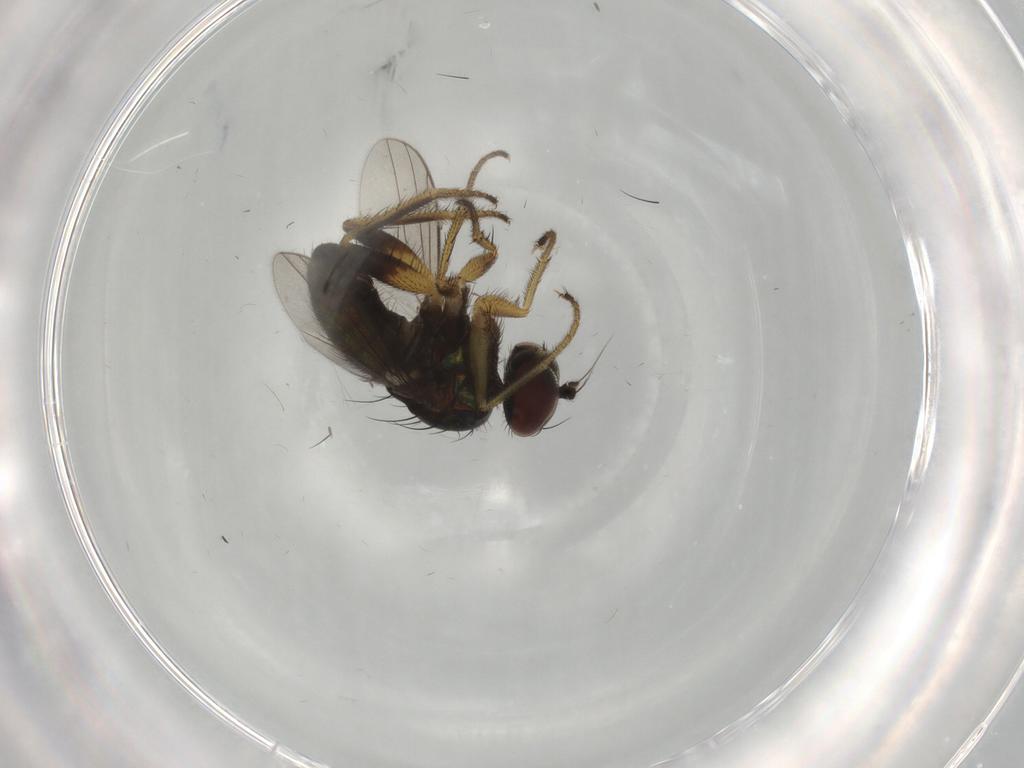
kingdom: Animalia
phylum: Arthropoda
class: Insecta
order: Diptera
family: Dolichopodidae
